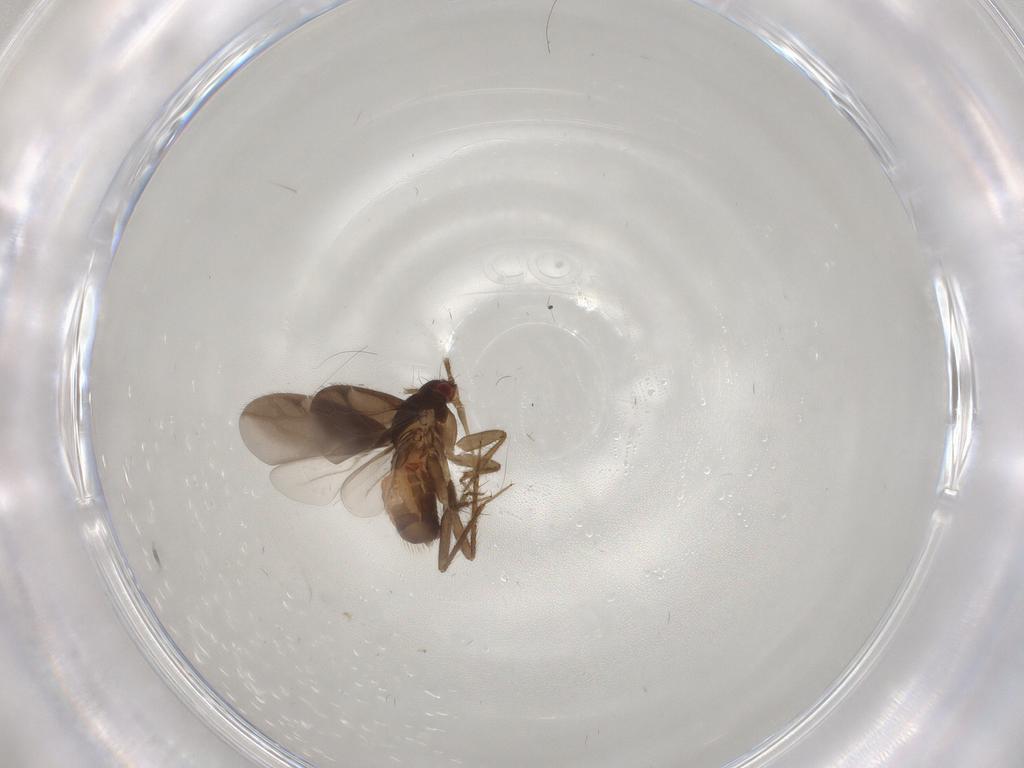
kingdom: Animalia
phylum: Arthropoda
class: Insecta
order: Hemiptera
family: Ceratocombidae
